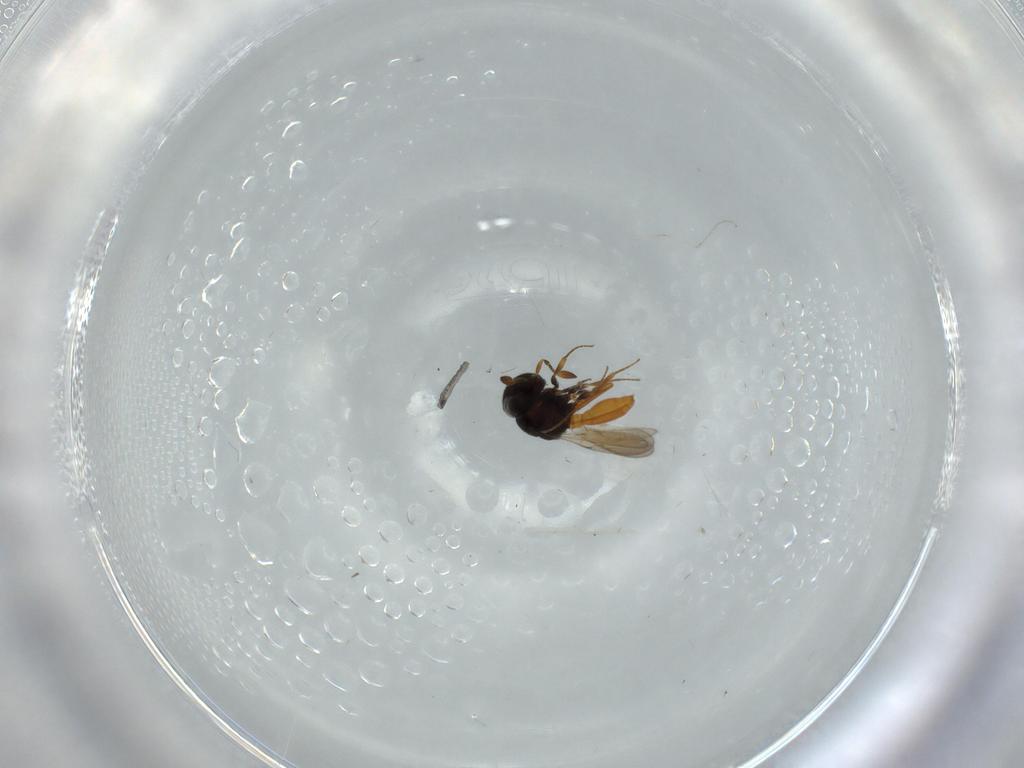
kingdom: Animalia
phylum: Arthropoda
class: Insecta
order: Hymenoptera
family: Scelionidae
